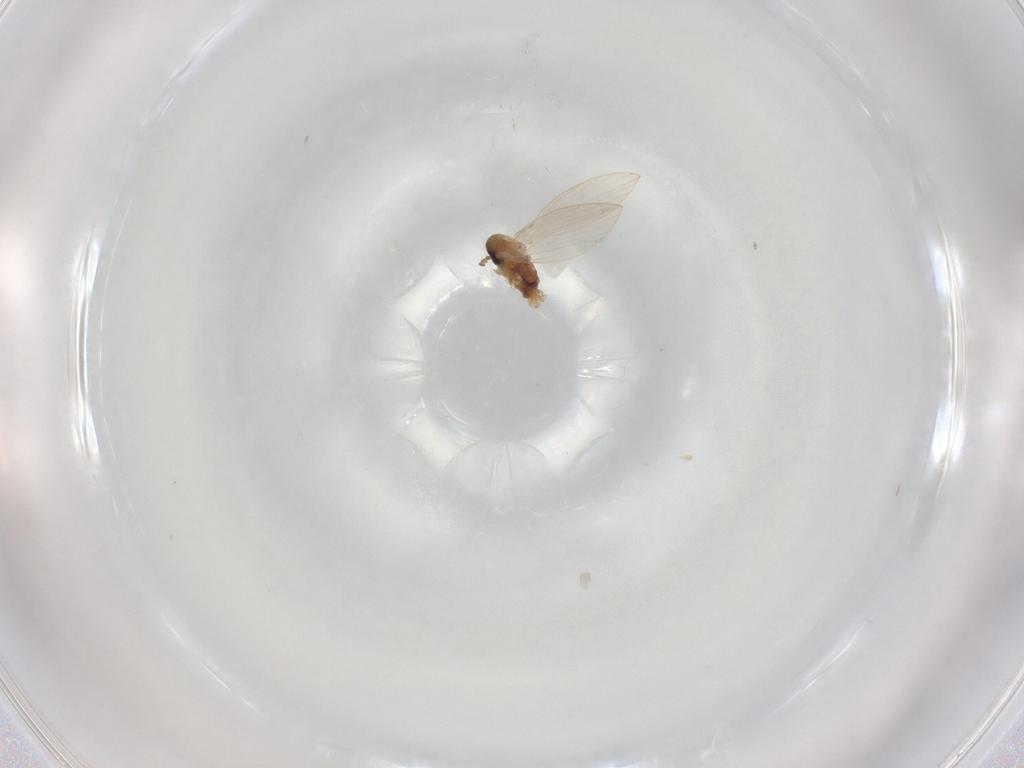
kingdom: Animalia
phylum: Arthropoda
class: Insecta
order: Diptera
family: Psychodidae
